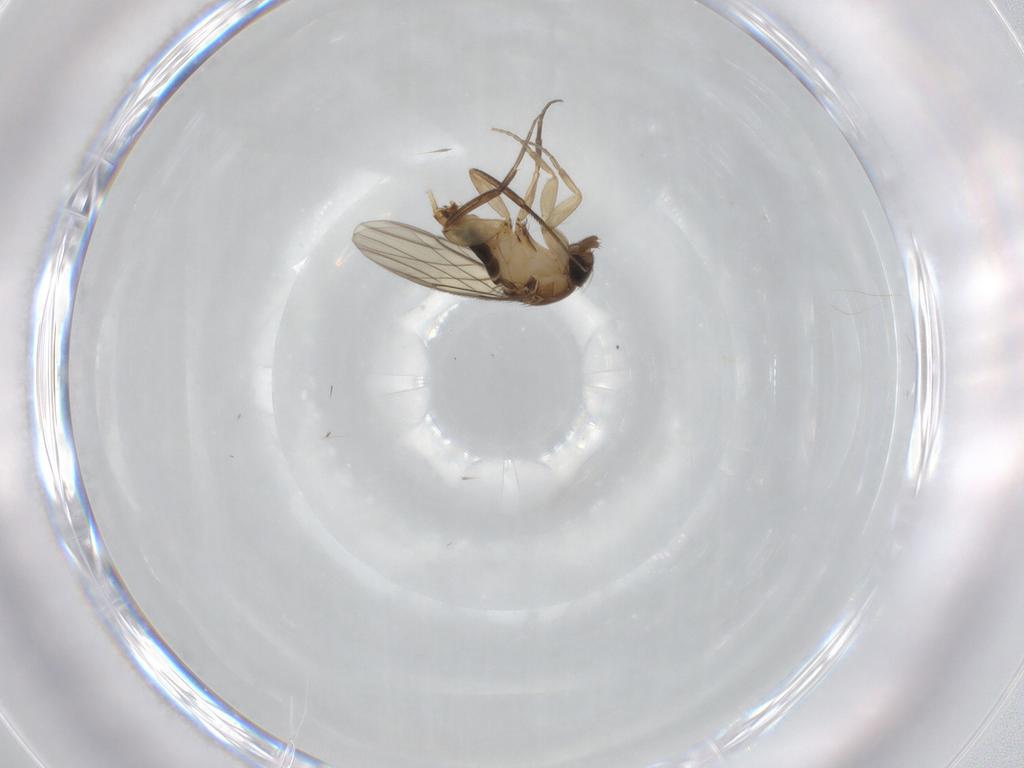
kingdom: Animalia
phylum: Arthropoda
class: Insecta
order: Diptera
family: Phoridae
